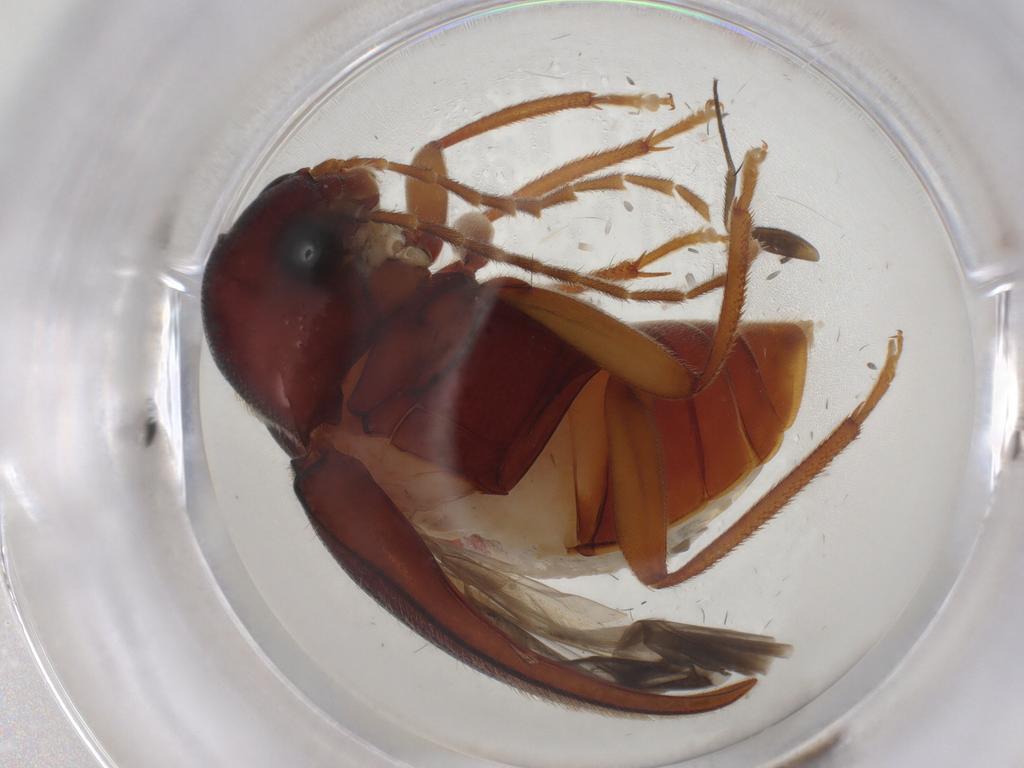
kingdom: Animalia
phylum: Arthropoda
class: Insecta
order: Coleoptera
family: Ptilodactylidae
